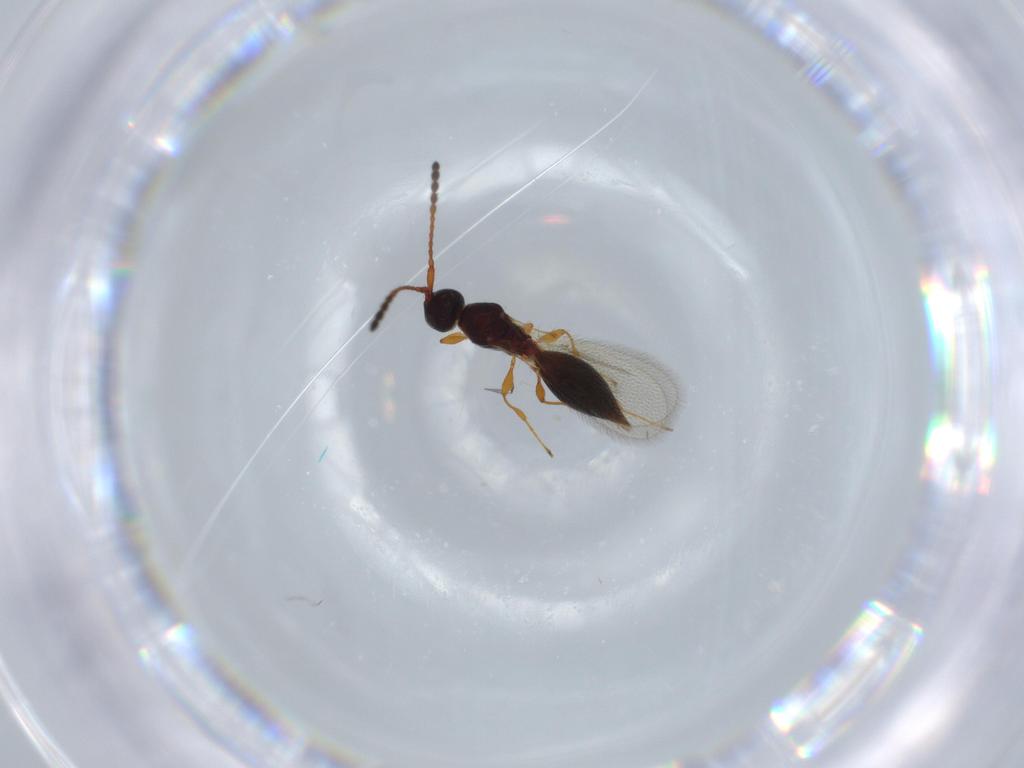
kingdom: Animalia
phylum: Arthropoda
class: Insecta
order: Hymenoptera
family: Diapriidae
